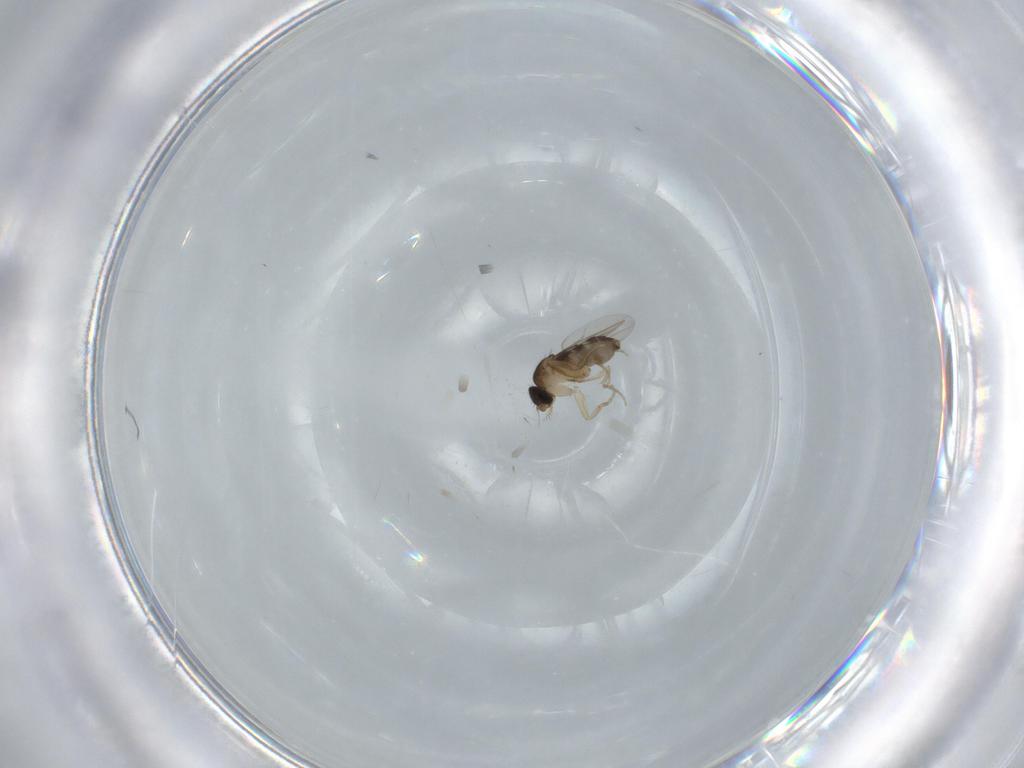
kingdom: Animalia
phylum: Arthropoda
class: Insecta
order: Diptera
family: Phoridae
